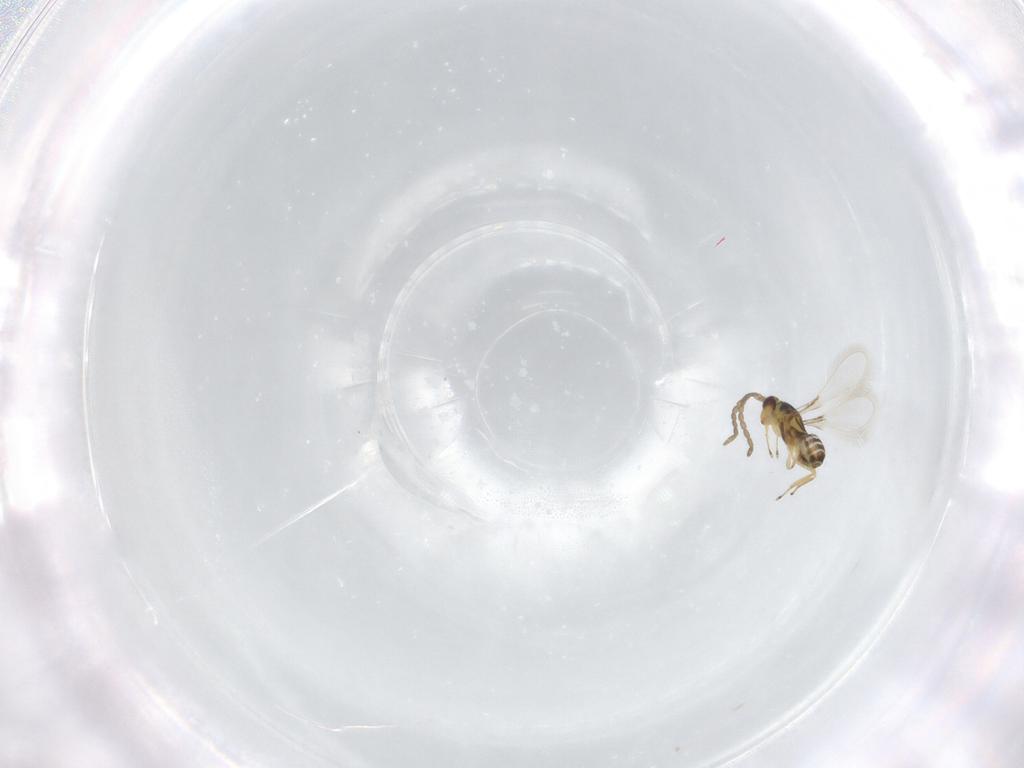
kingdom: Animalia
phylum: Arthropoda
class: Insecta
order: Hymenoptera
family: Mymaridae
